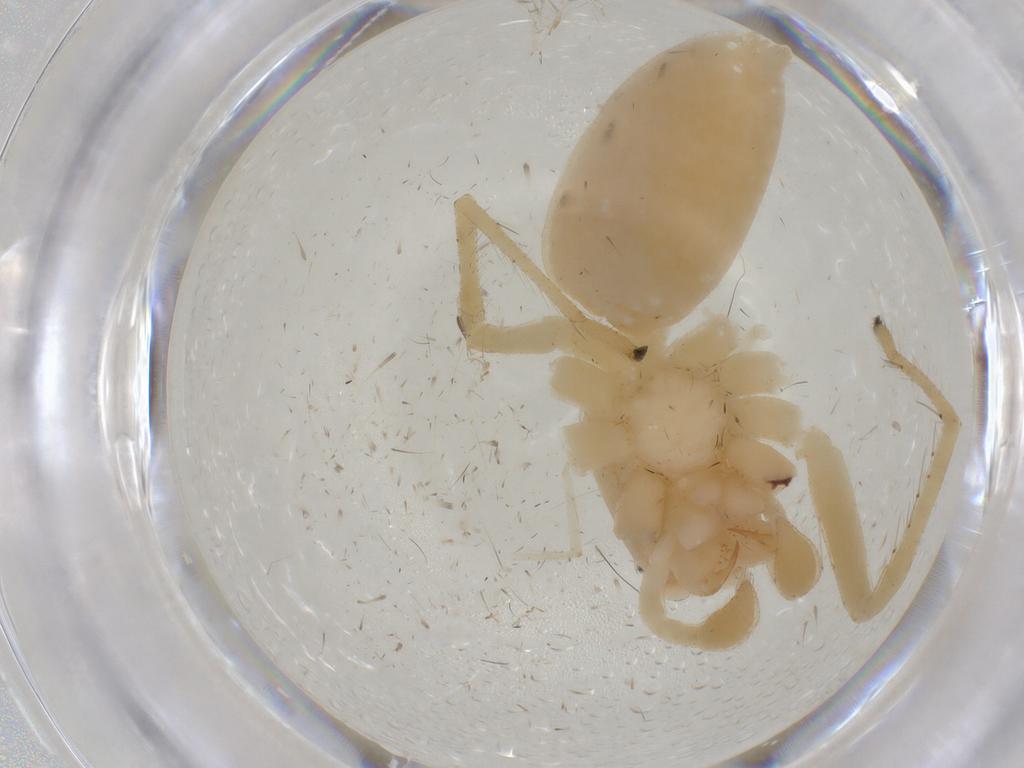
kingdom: Animalia
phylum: Arthropoda
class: Arachnida
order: Araneae
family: Salticidae
